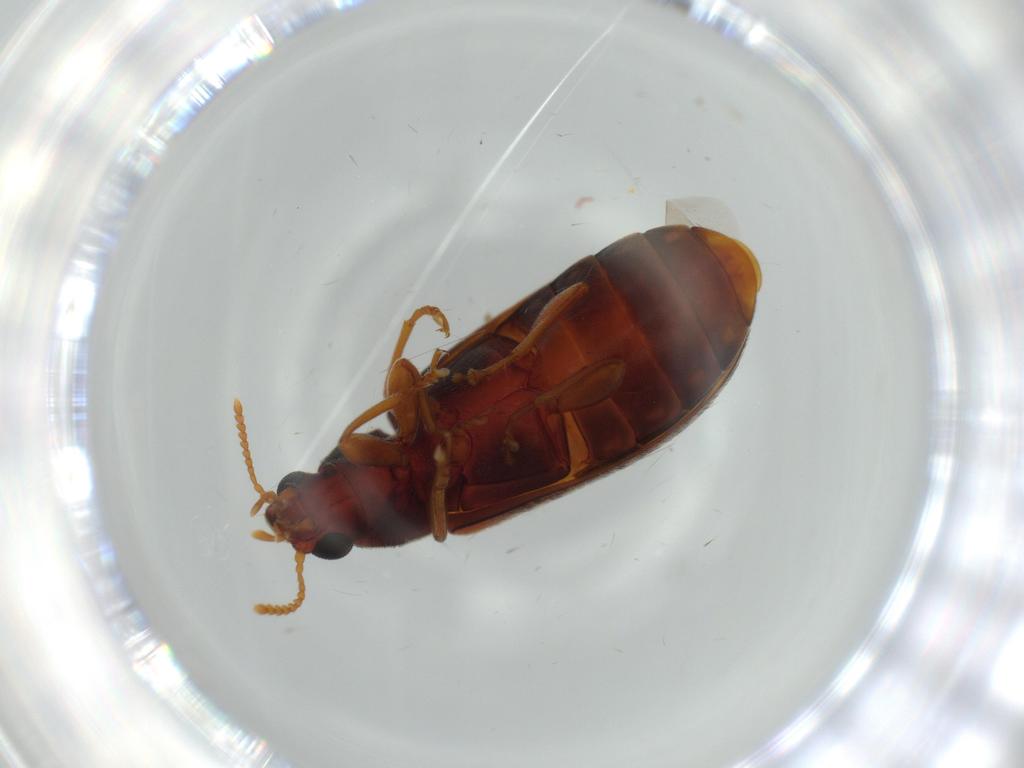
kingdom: Animalia
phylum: Arthropoda
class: Insecta
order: Coleoptera
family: Mycteridae
